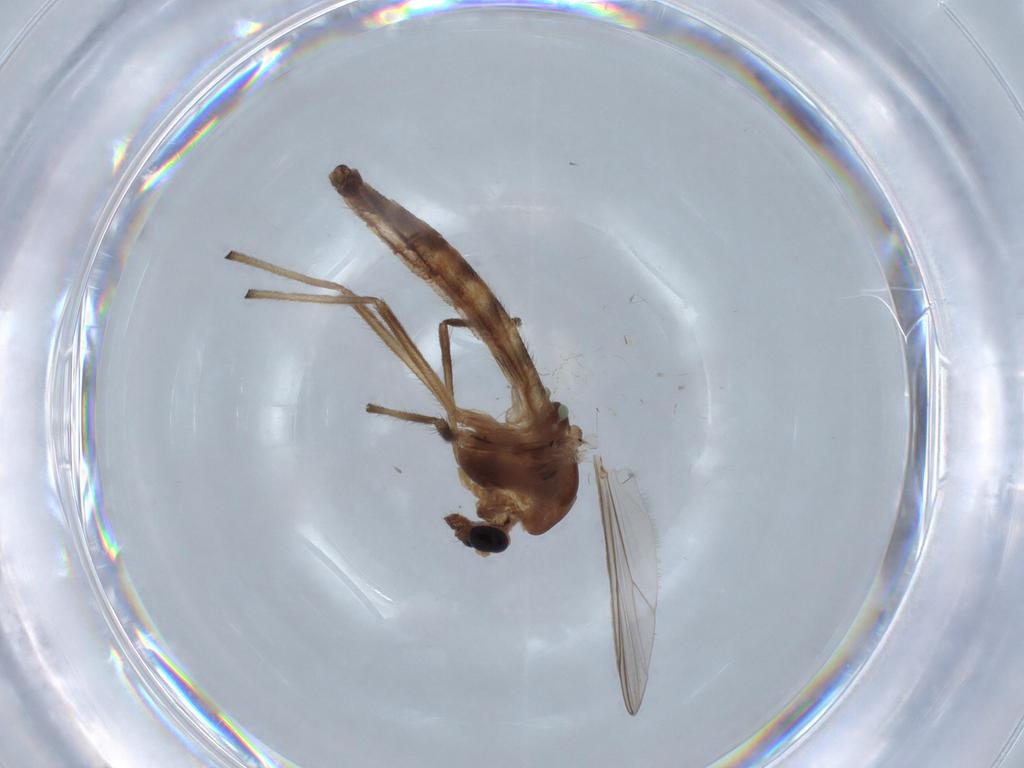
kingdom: Animalia
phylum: Arthropoda
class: Insecta
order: Diptera
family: Chironomidae
